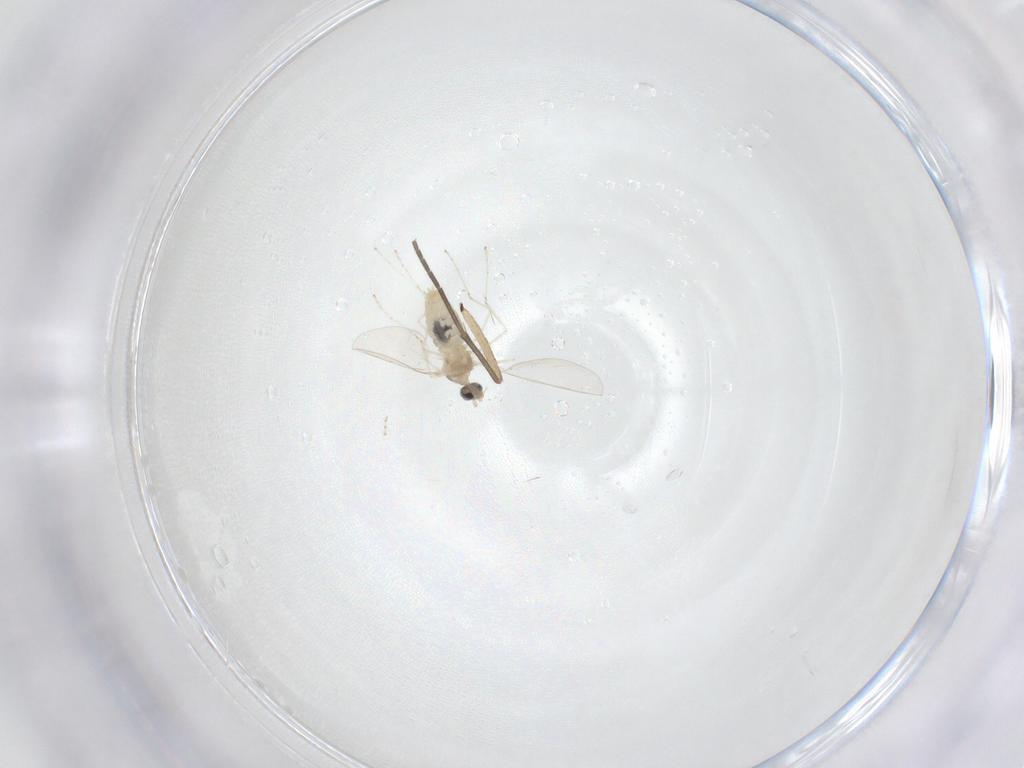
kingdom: Animalia
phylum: Arthropoda
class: Insecta
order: Diptera
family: Cecidomyiidae
